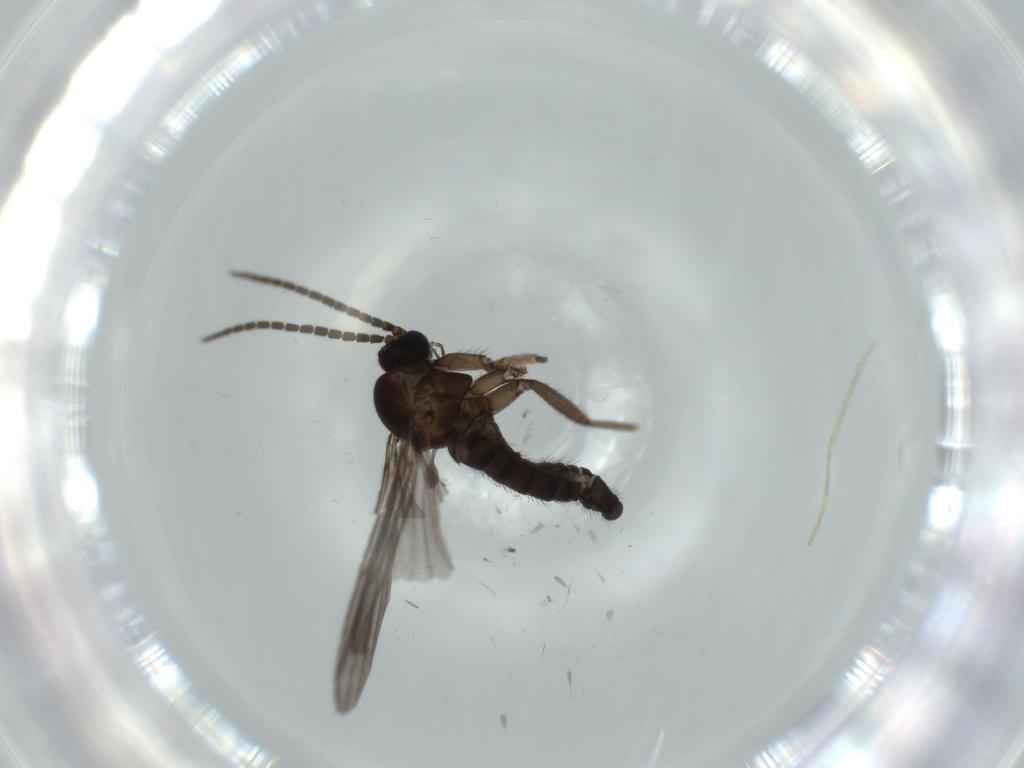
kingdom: Animalia
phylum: Arthropoda
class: Insecta
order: Diptera
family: Sciaridae
